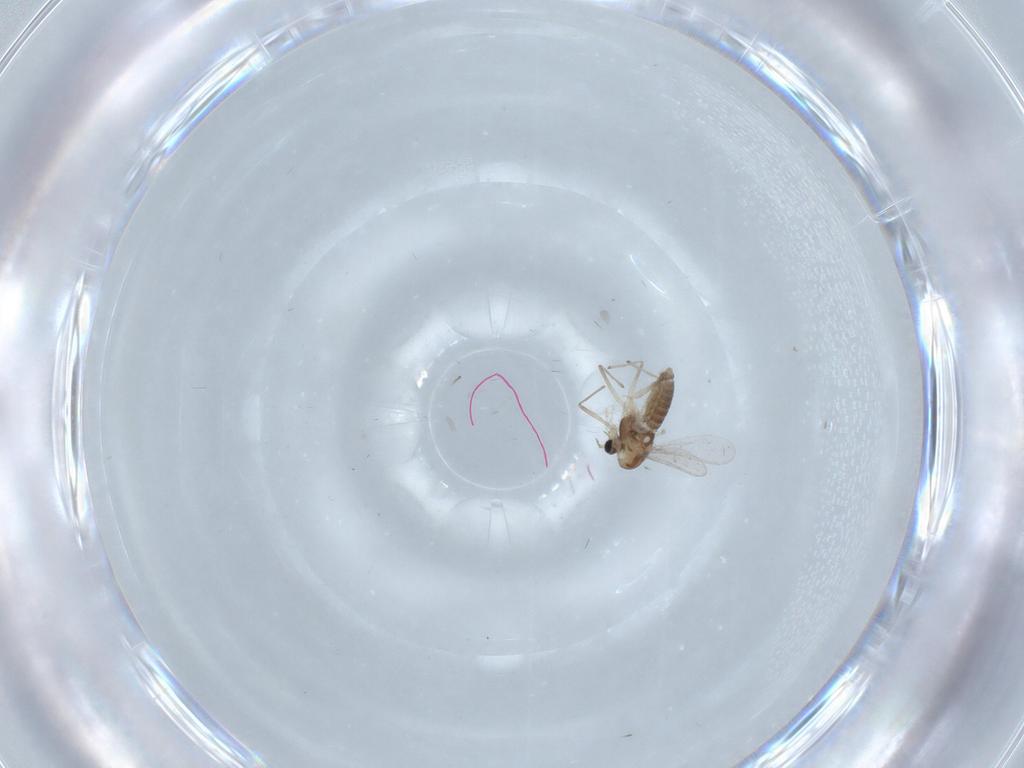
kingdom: Animalia
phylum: Arthropoda
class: Insecta
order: Diptera
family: Chironomidae
